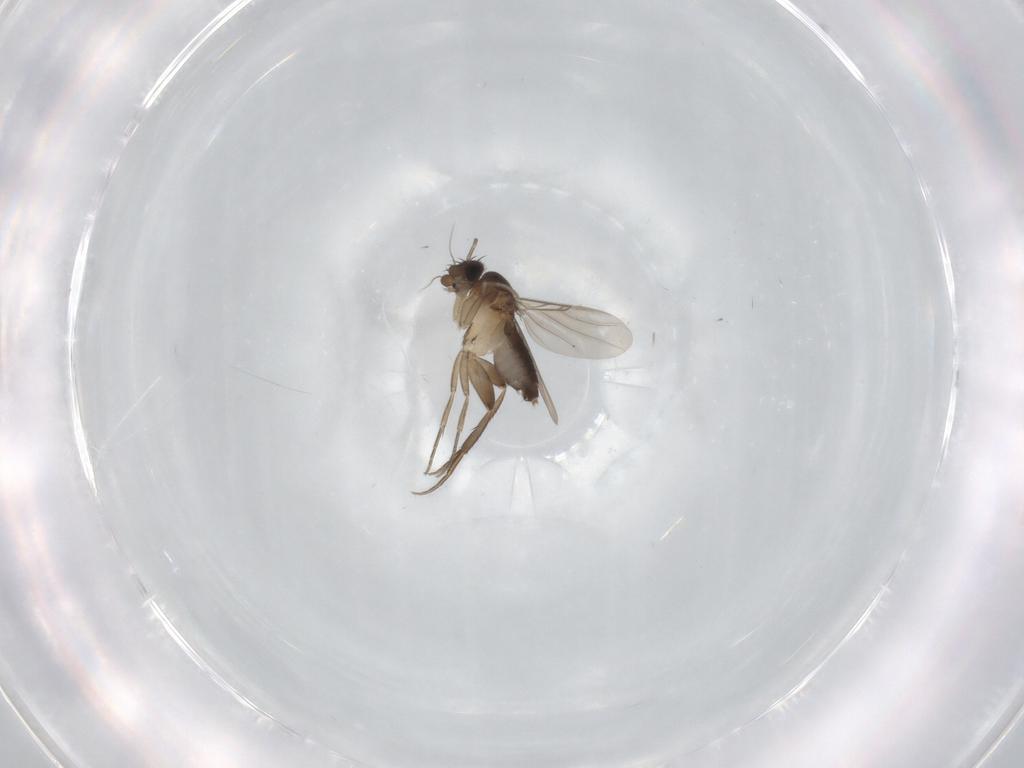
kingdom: Animalia
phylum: Arthropoda
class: Insecta
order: Diptera
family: Phoridae
